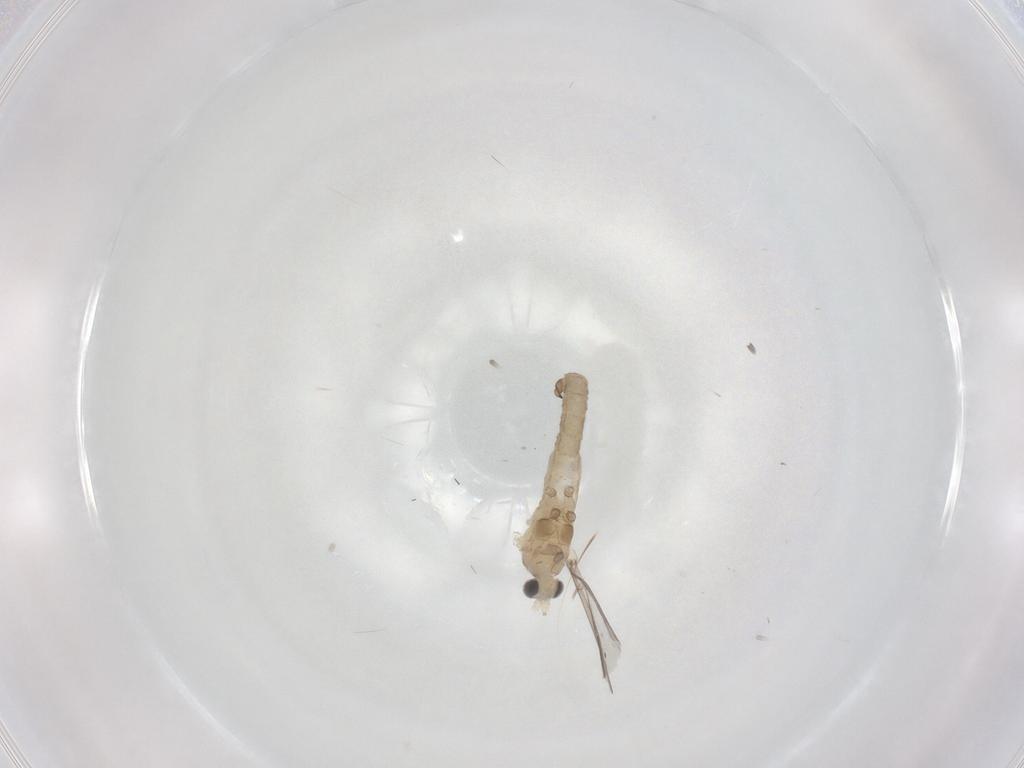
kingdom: Animalia
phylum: Arthropoda
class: Insecta
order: Diptera
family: Cecidomyiidae
